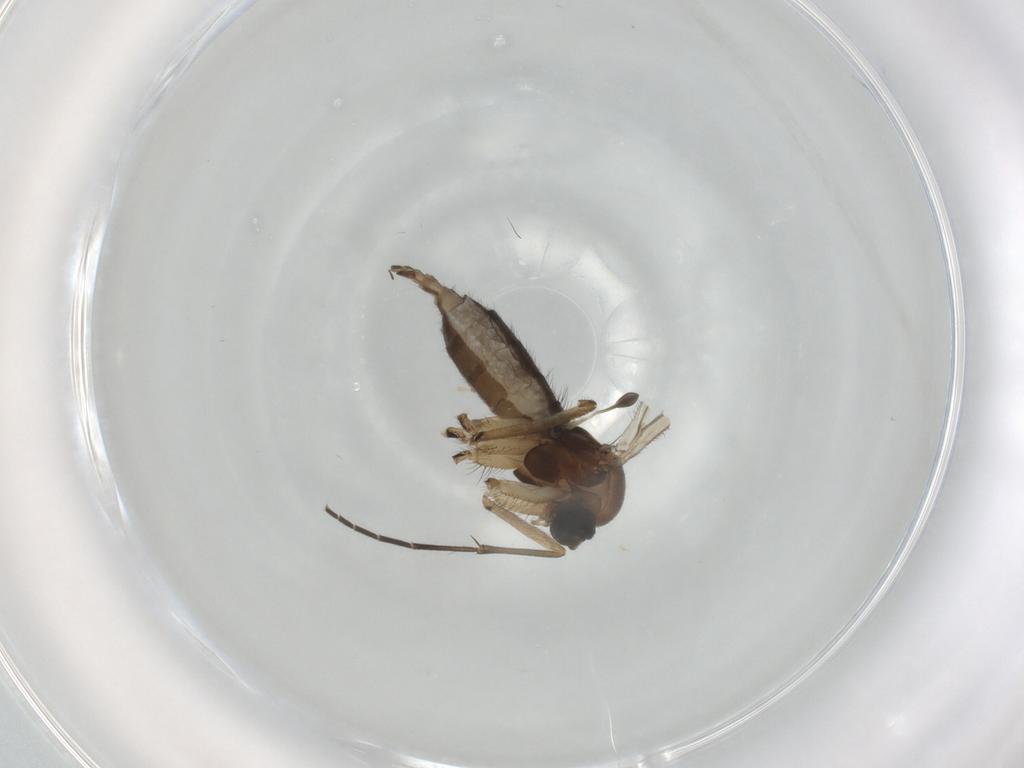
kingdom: Animalia
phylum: Arthropoda
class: Insecta
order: Diptera
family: Sciaridae
